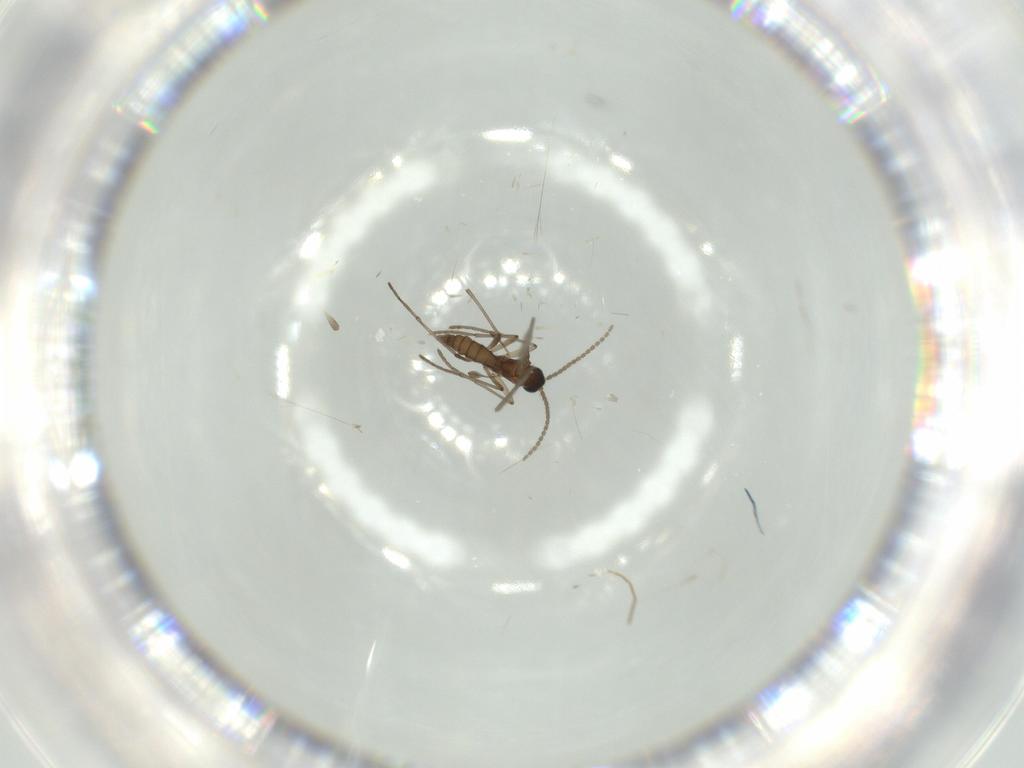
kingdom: Animalia
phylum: Arthropoda
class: Insecta
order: Diptera
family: Sciaridae
